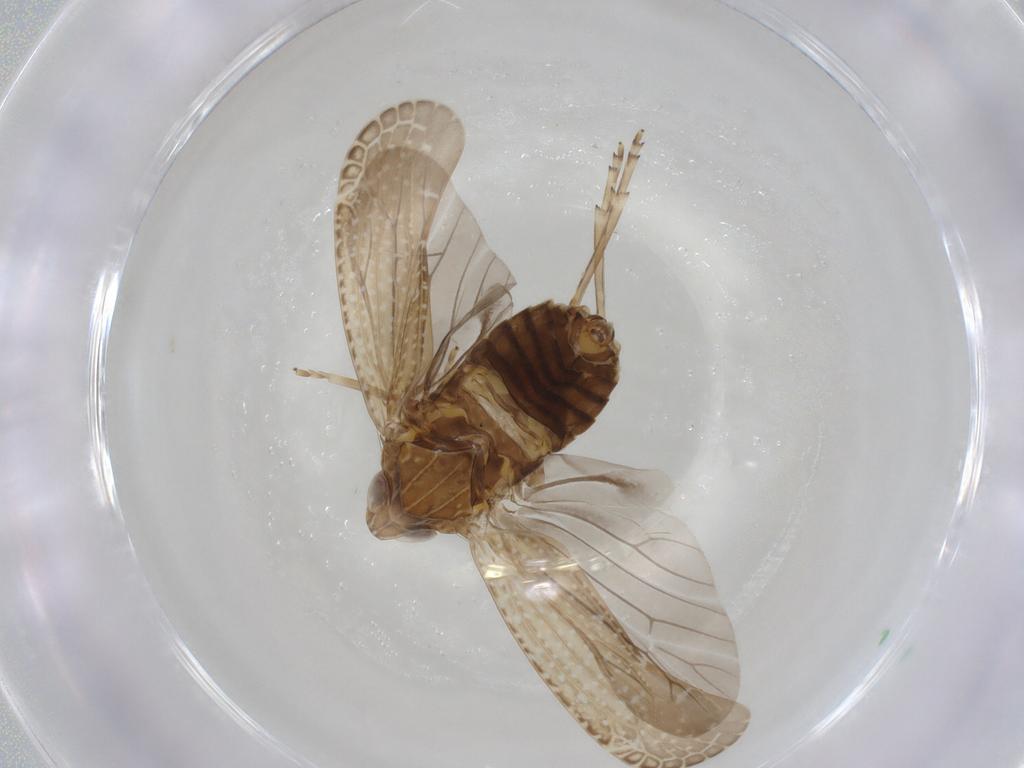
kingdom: Animalia
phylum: Arthropoda
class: Insecta
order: Hemiptera
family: Achilidae
